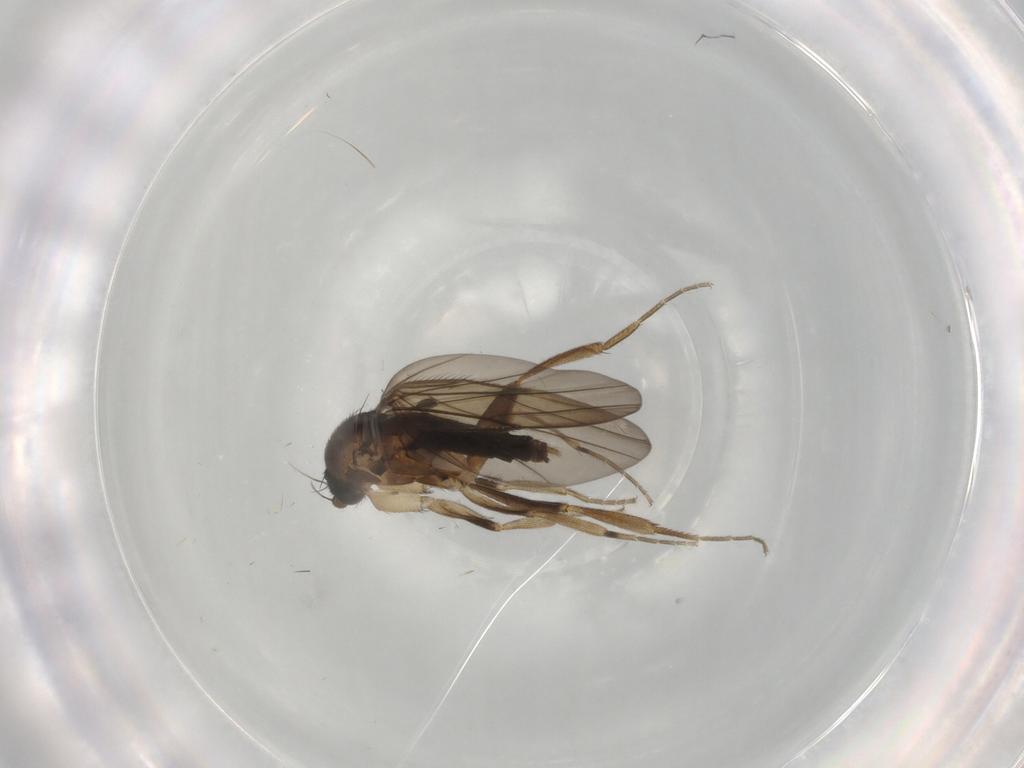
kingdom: Animalia
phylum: Arthropoda
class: Insecta
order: Diptera
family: Phoridae
